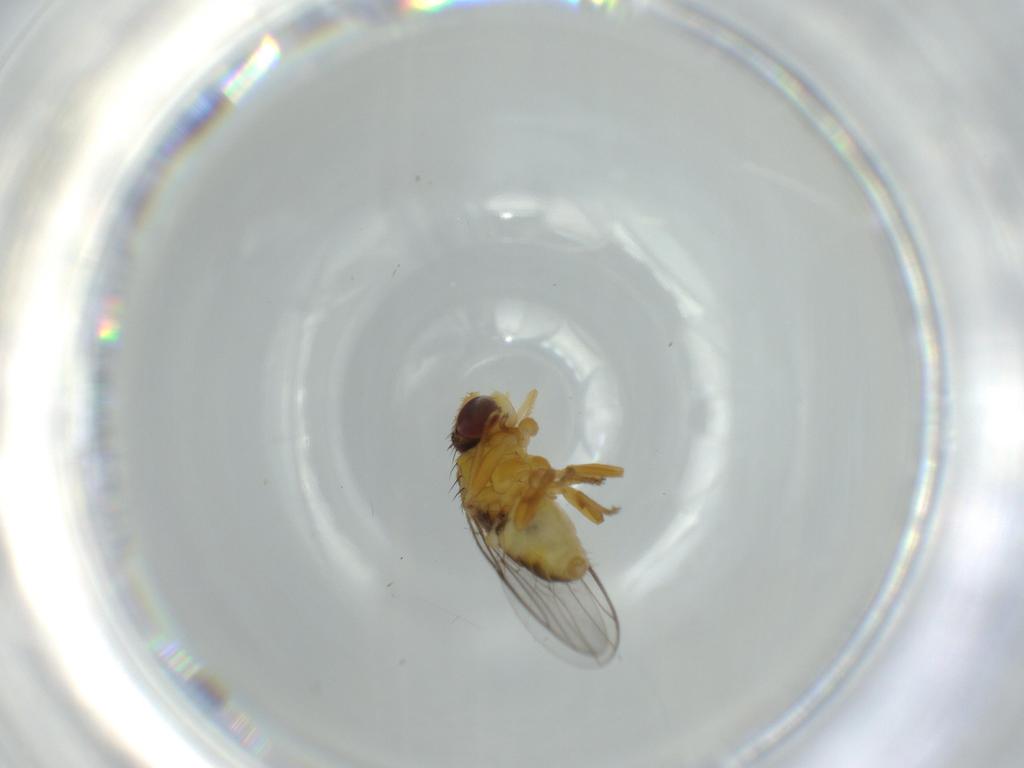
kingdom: Animalia
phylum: Arthropoda
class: Insecta
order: Diptera
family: Chloropidae
